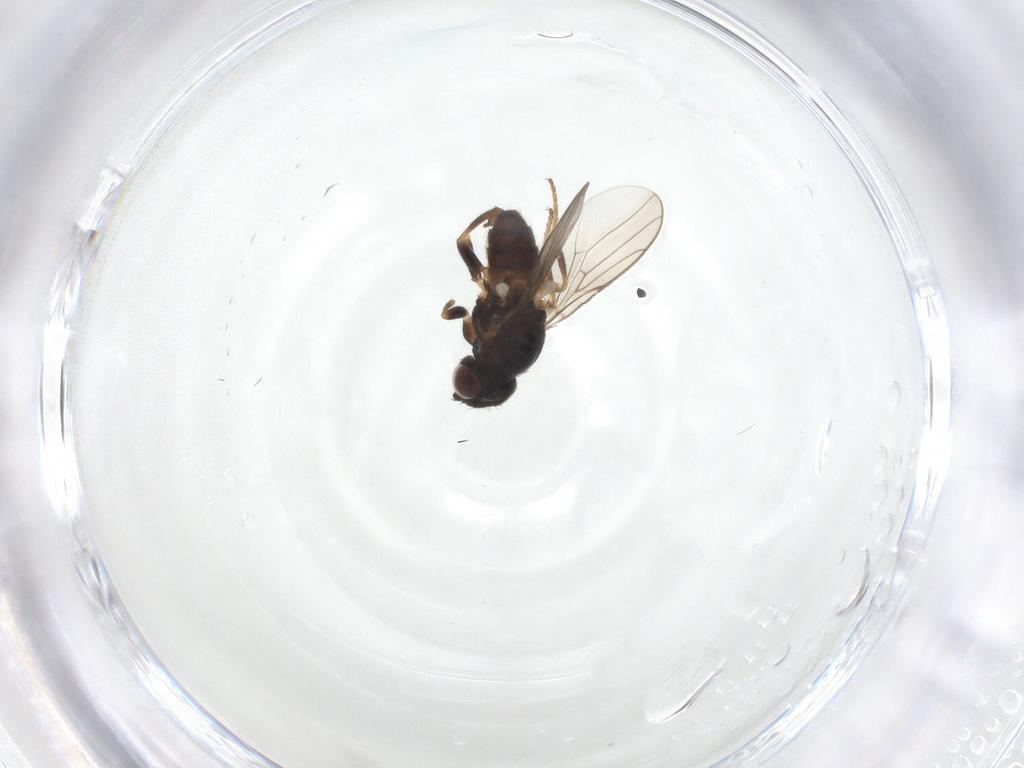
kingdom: Animalia
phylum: Arthropoda
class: Insecta
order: Diptera
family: Chloropidae
